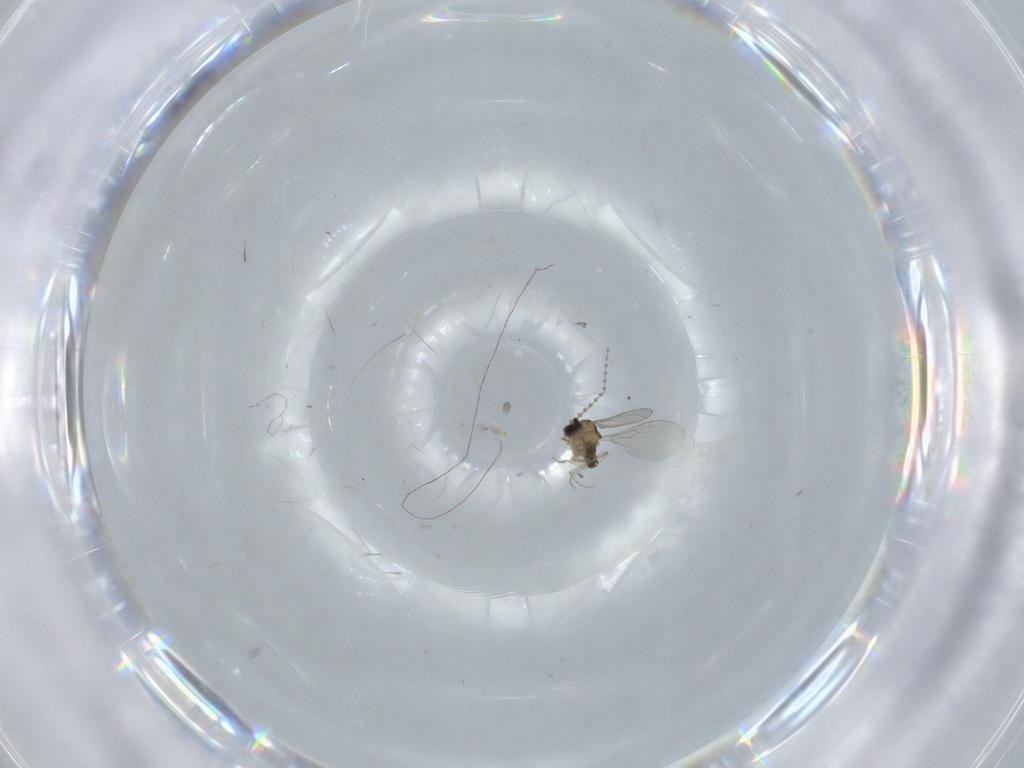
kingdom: Animalia
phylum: Arthropoda
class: Insecta
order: Diptera
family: Cecidomyiidae
